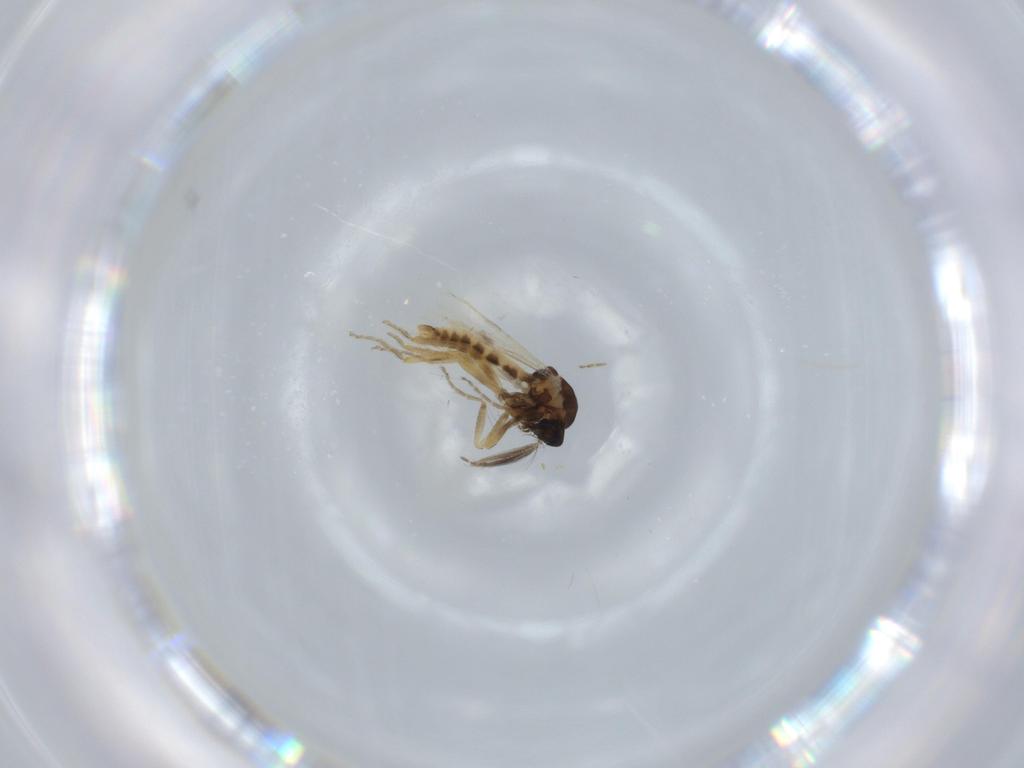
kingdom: Animalia
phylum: Arthropoda
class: Insecta
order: Diptera
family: Ceratopogonidae
